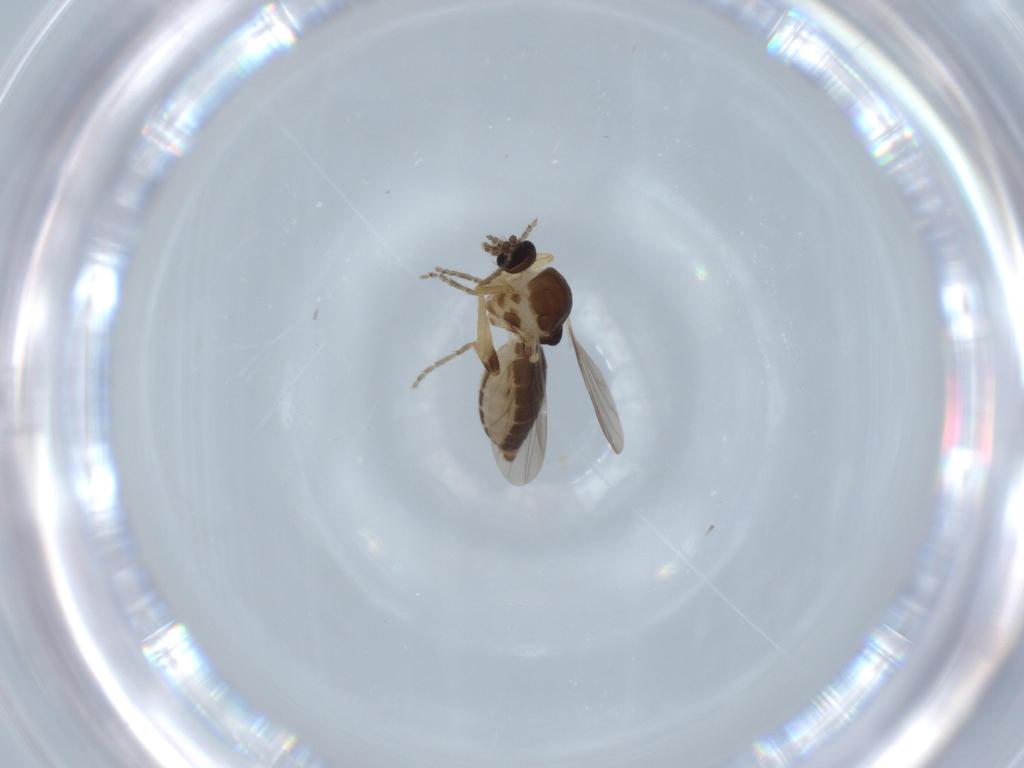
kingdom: Animalia
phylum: Arthropoda
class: Insecta
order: Diptera
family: Ceratopogonidae
